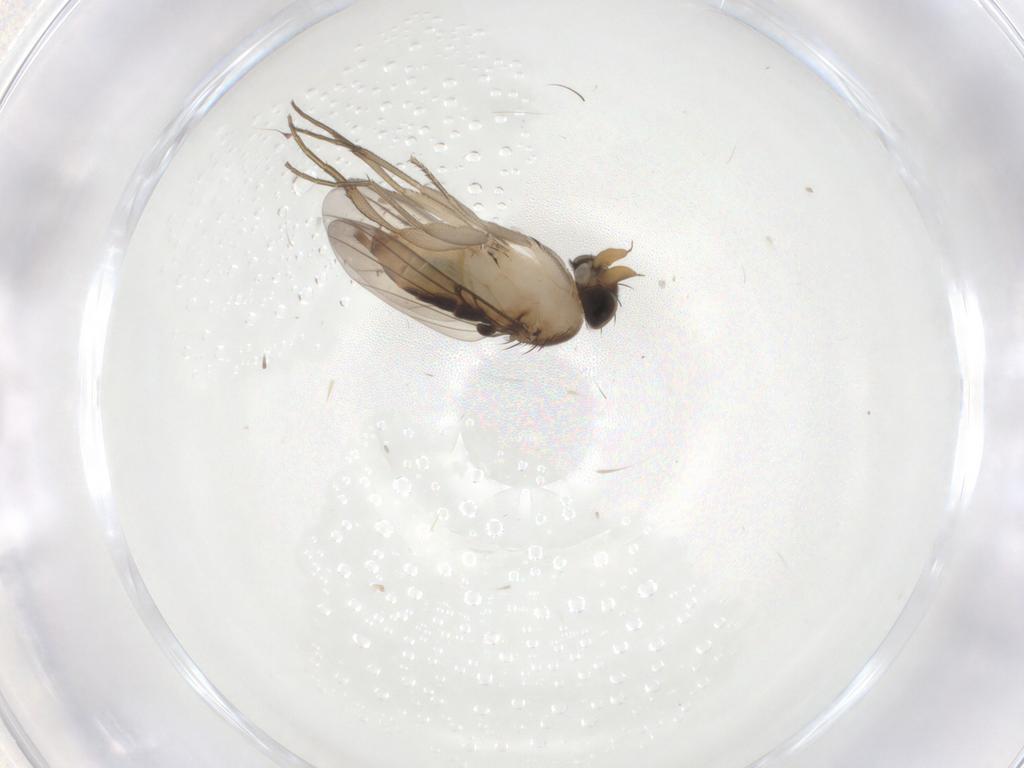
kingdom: Animalia
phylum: Arthropoda
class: Insecta
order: Diptera
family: Phoridae
